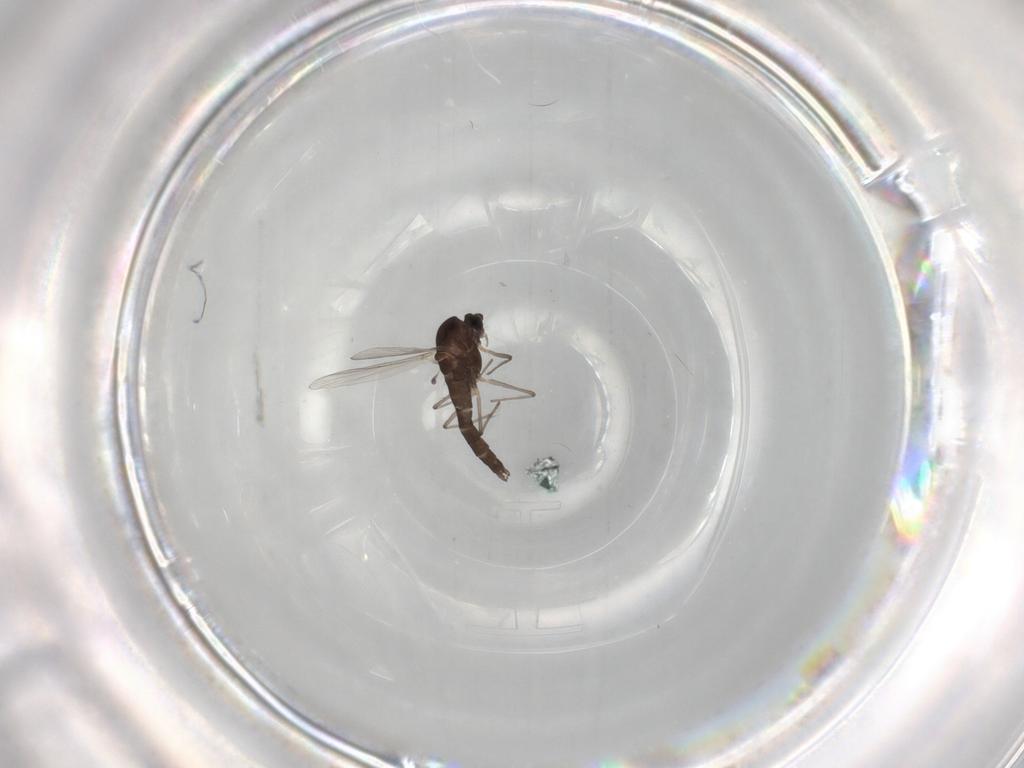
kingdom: Animalia
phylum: Arthropoda
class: Insecta
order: Diptera
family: Chironomidae
